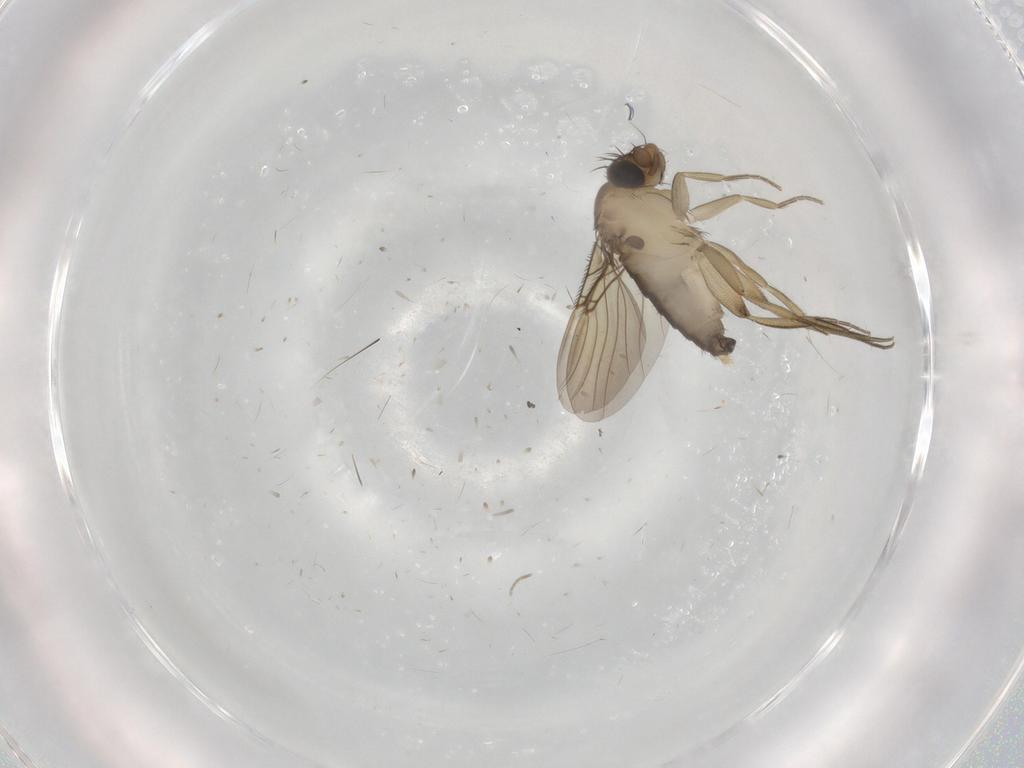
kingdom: Animalia
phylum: Arthropoda
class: Insecta
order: Diptera
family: Phoridae
